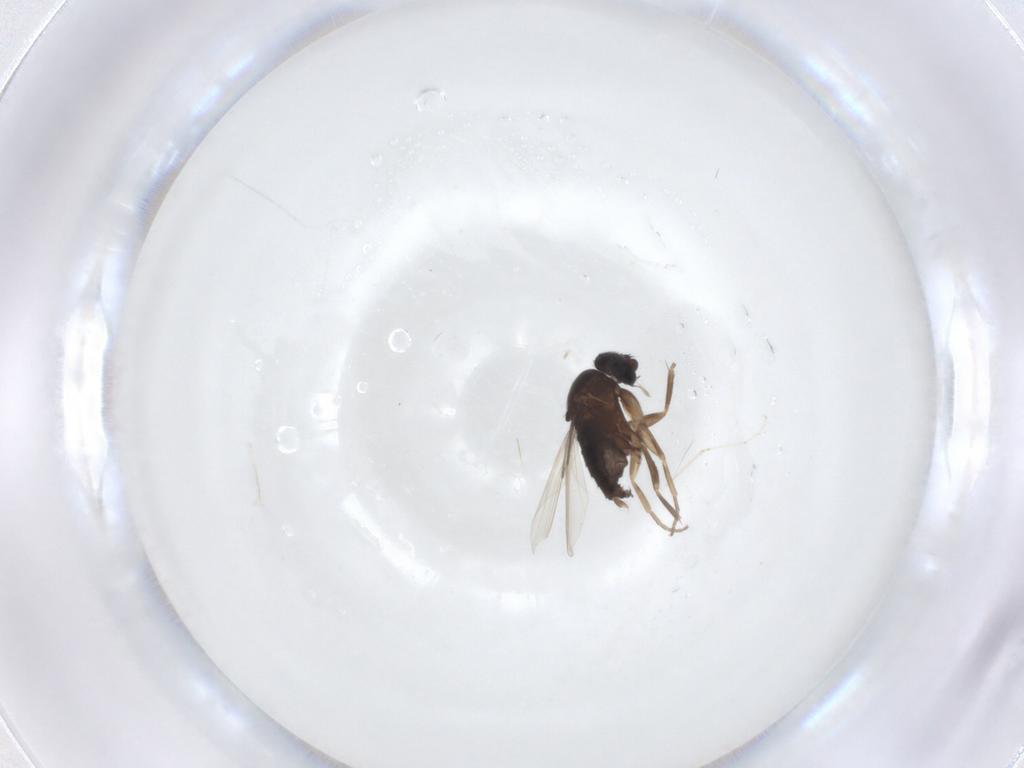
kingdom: Animalia
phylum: Arthropoda
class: Insecta
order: Diptera
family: Phoridae
